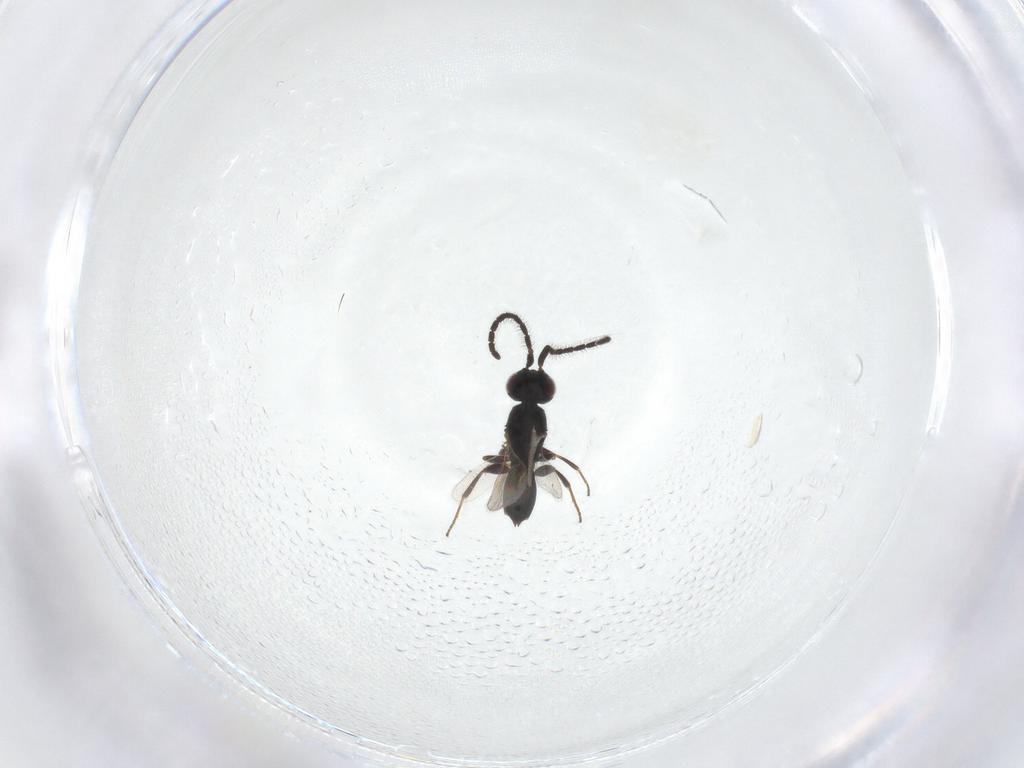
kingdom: Animalia
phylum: Arthropoda
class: Insecta
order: Hymenoptera
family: Megaspilidae
